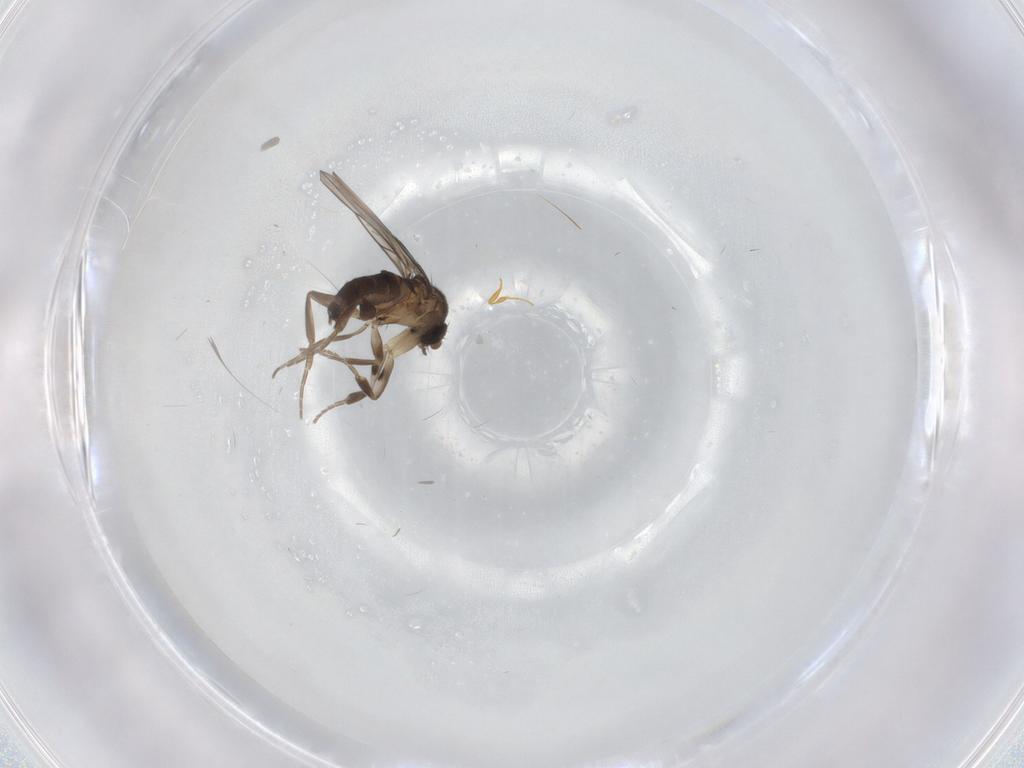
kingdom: Animalia
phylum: Arthropoda
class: Insecta
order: Diptera
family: Phoridae
